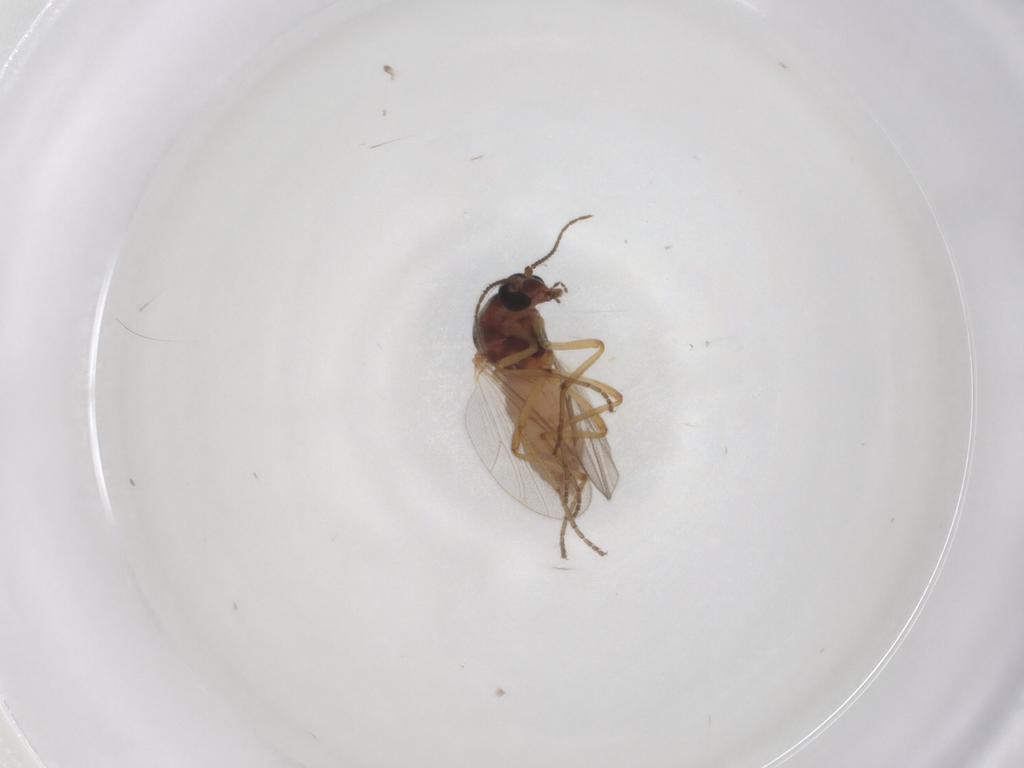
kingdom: Animalia
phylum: Arthropoda
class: Insecta
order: Diptera
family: Ceratopogonidae
